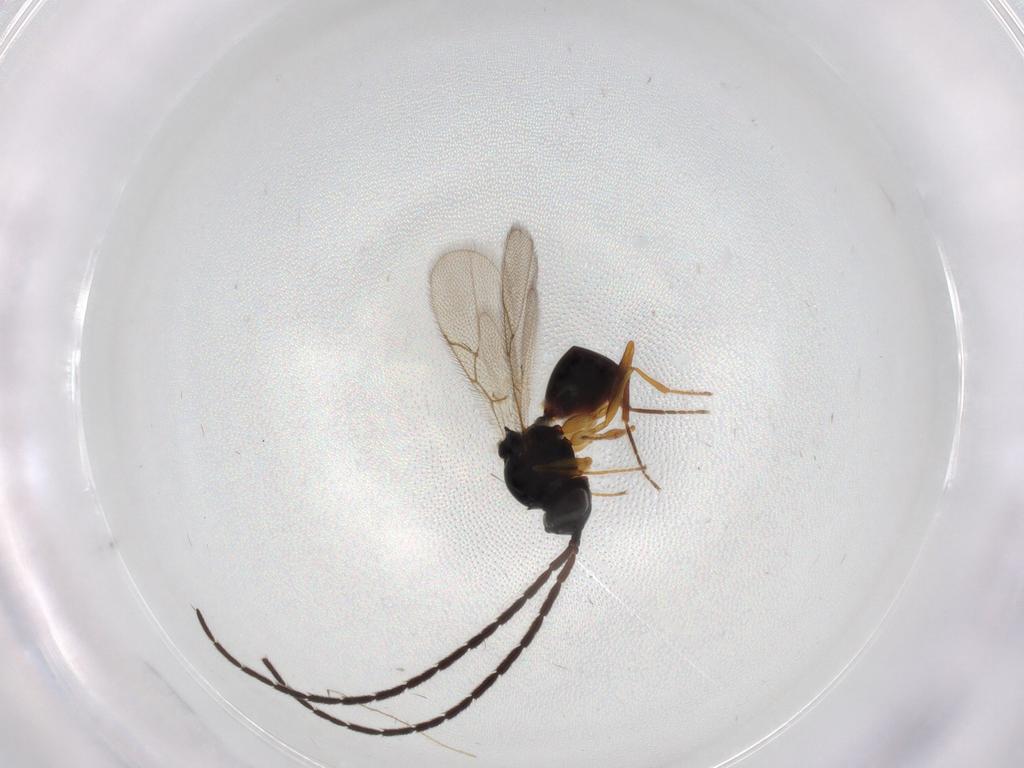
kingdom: Animalia
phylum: Arthropoda
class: Insecta
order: Hymenoptera
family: Figitidae
